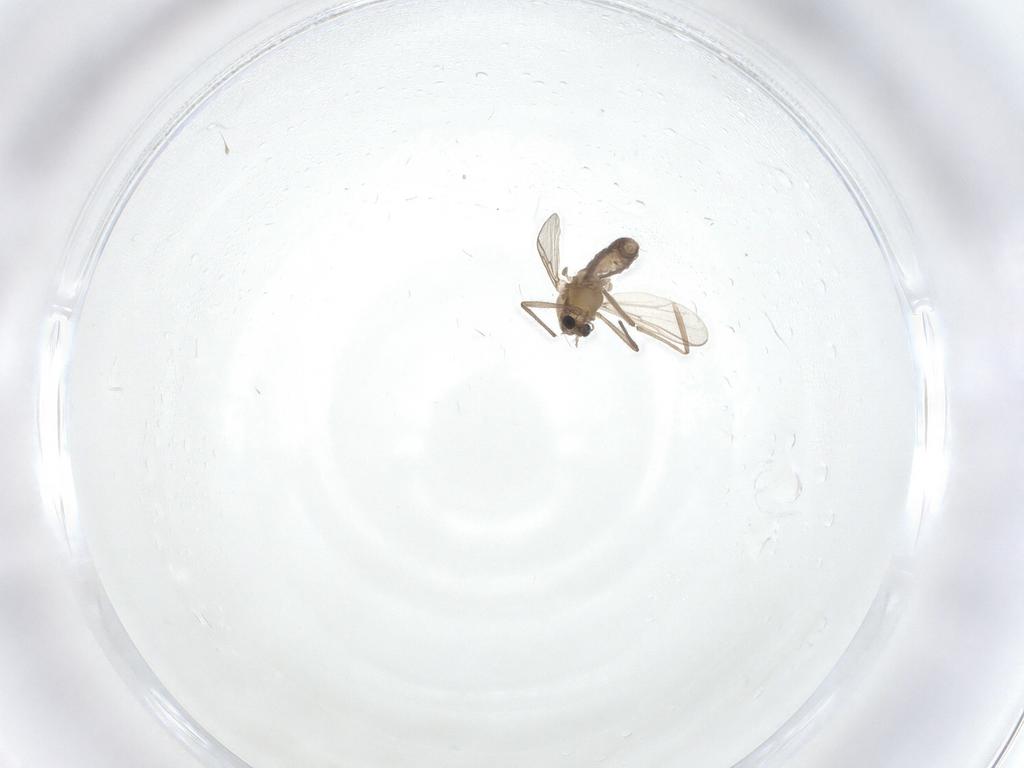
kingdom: Animalia
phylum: Arthropoda
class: Insecta
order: Diptera
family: Chironomidae
